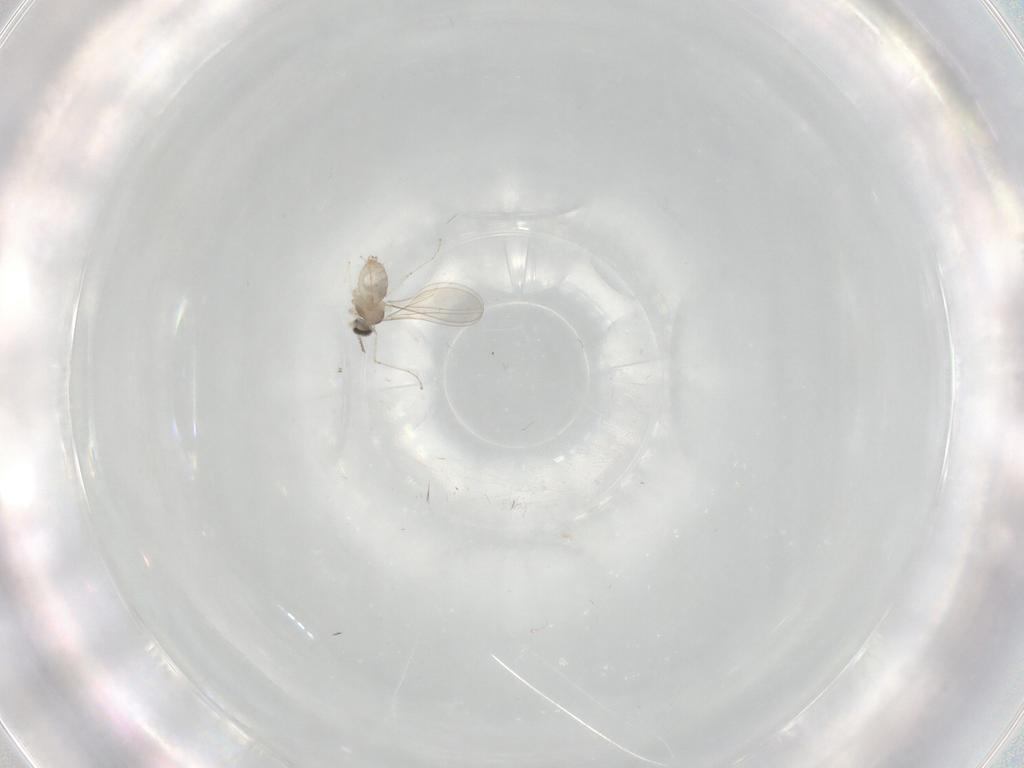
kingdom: Animalia
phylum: Arthropoda
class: Insecta
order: Diptera
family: Cecidomyiidae
